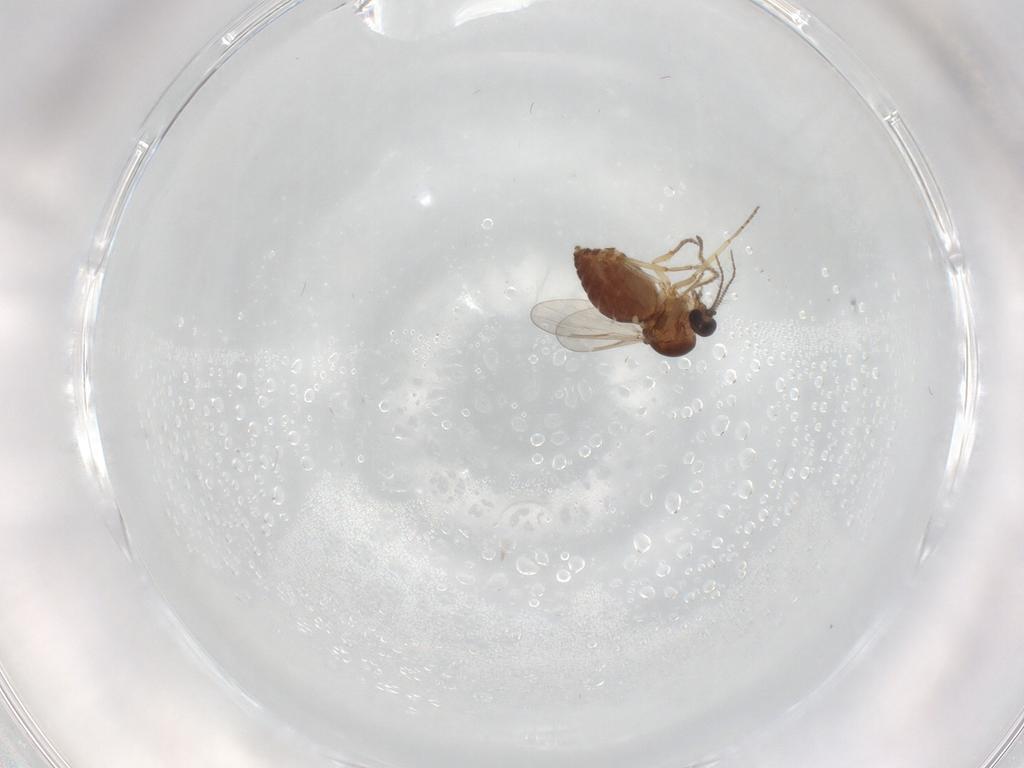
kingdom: Animalia
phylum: Arthropoda
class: Insecta
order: Diptera
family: Ceratopogonidae
